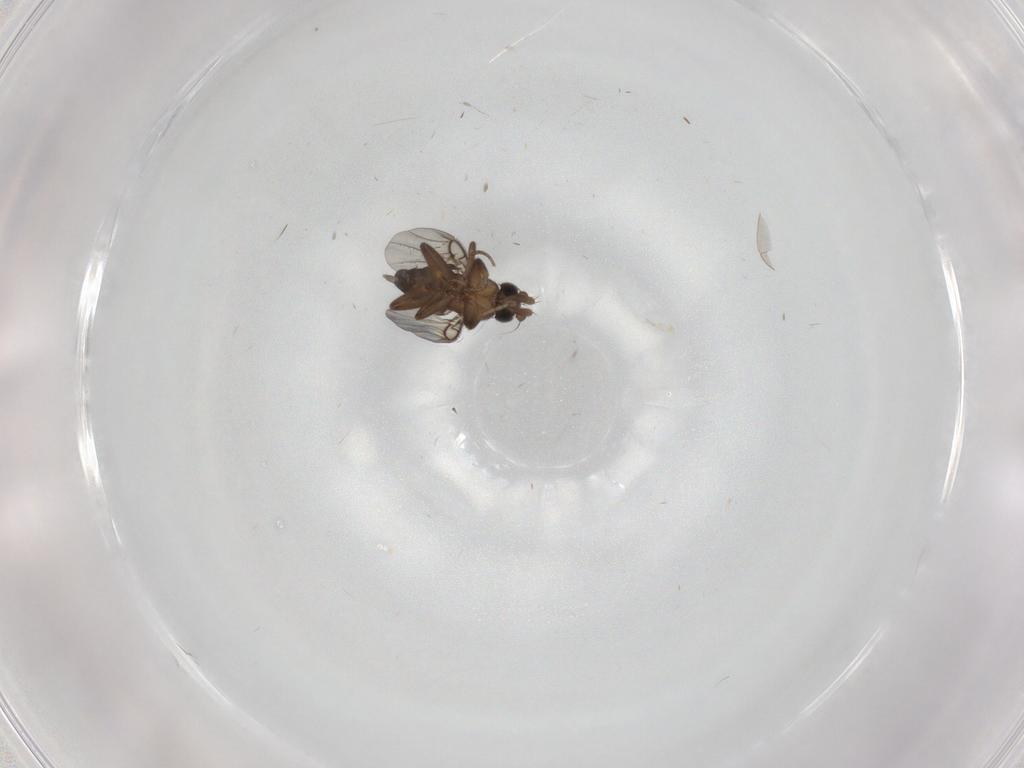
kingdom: Animalia
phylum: Arthropoda
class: Insecta
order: Diptera
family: Phoridae
